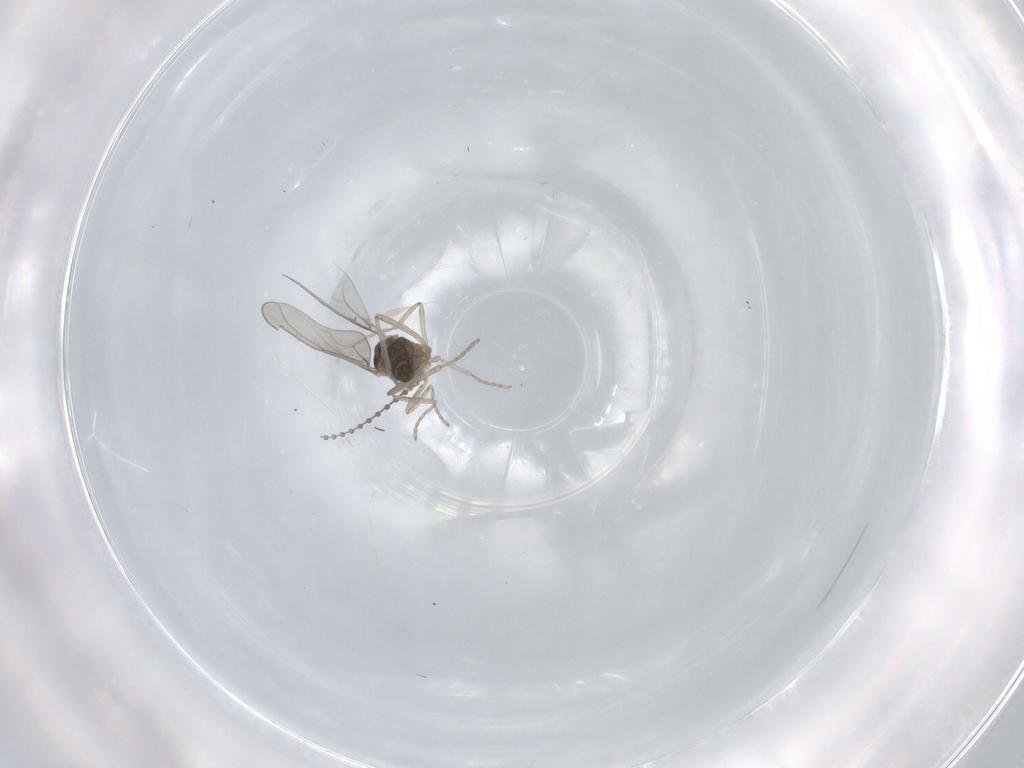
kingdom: Animalia
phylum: Arthropoda
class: Insecta
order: Diptera
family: Cecidomyiidae
